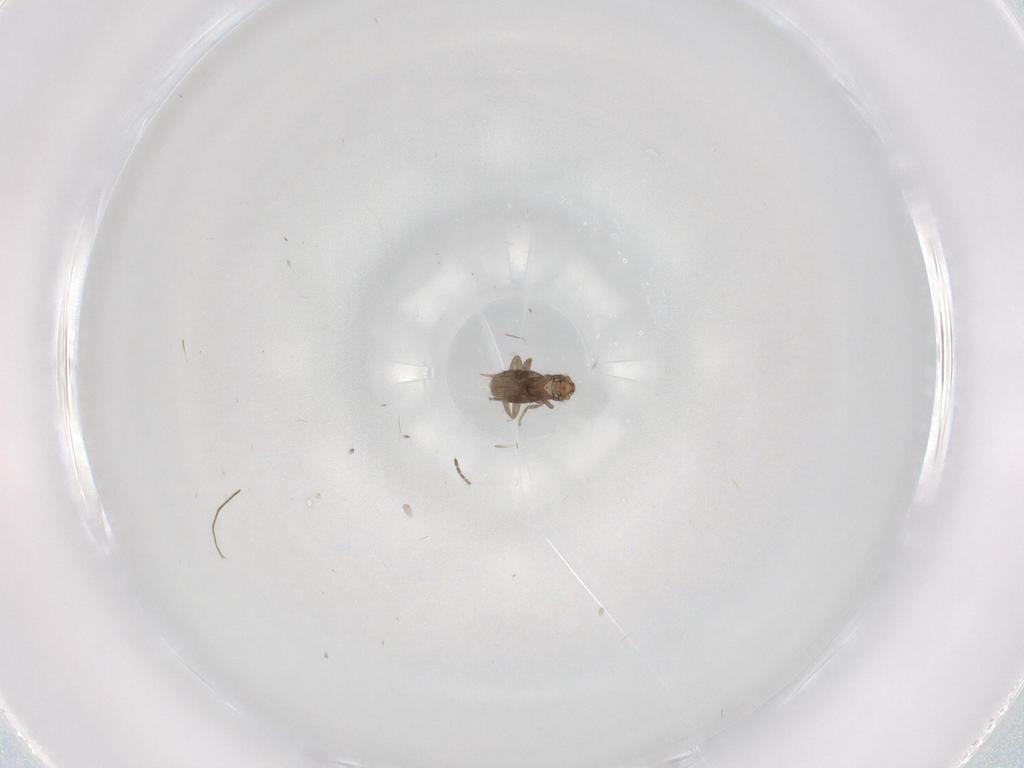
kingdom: Animalia
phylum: Arthropoda
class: Insecta
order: Diptera
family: Chironomidae
